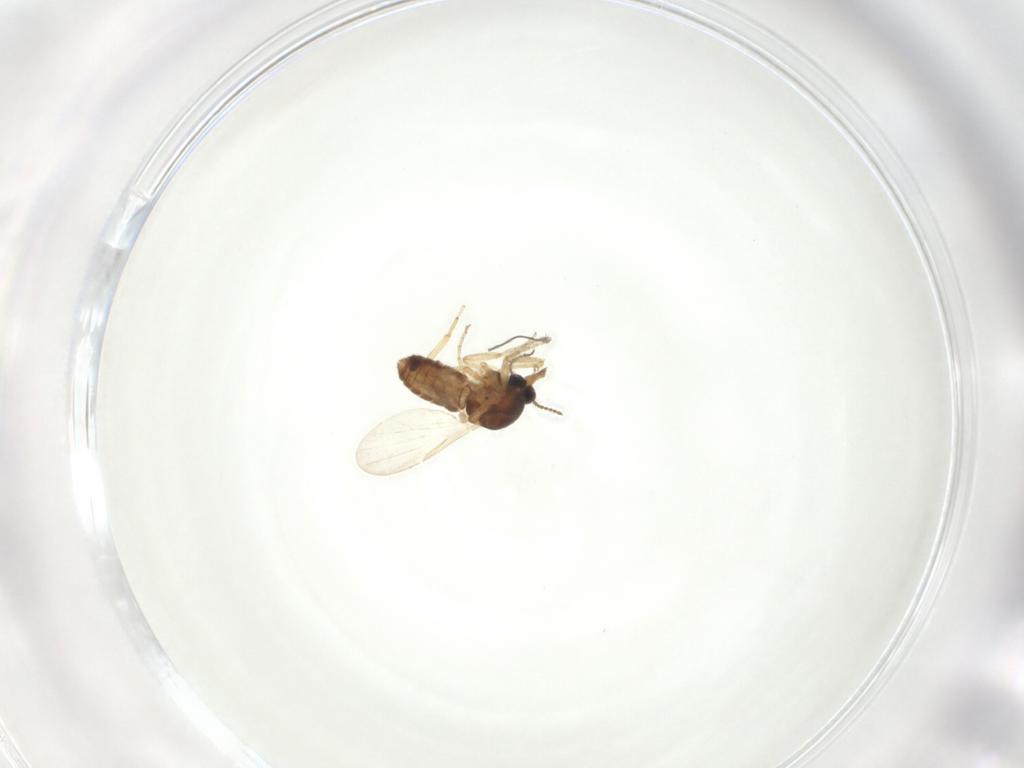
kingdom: Animalia
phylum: Arthropoda
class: Insecta
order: Diptera
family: Ceratopogonidae
